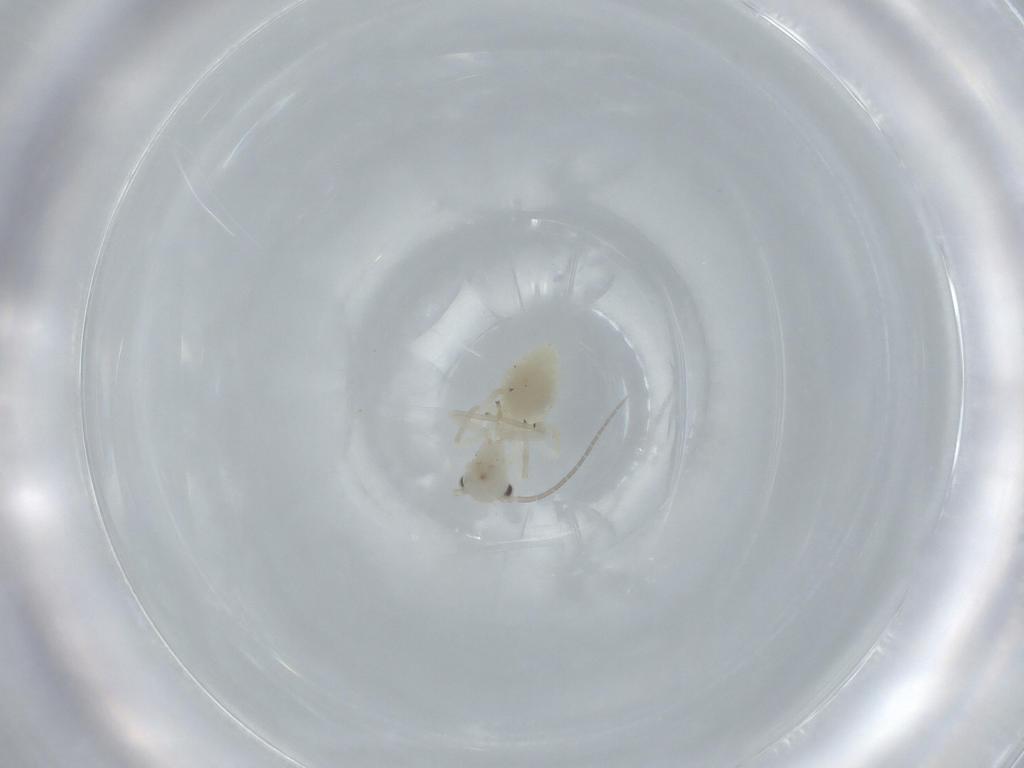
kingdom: Animalia
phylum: Arthropoda
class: Insecta
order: Psocodea
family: Caeciliusidae
